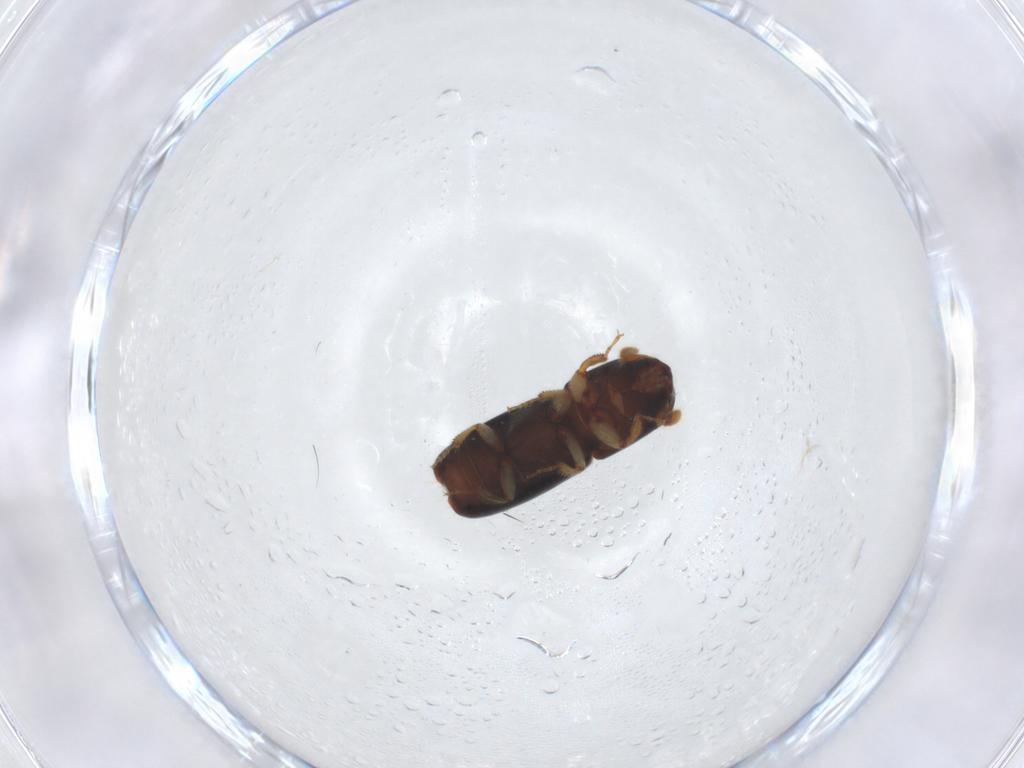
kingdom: Animalia
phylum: Arthropoda
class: Insecta
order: Coleoptera
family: Curculionidae
